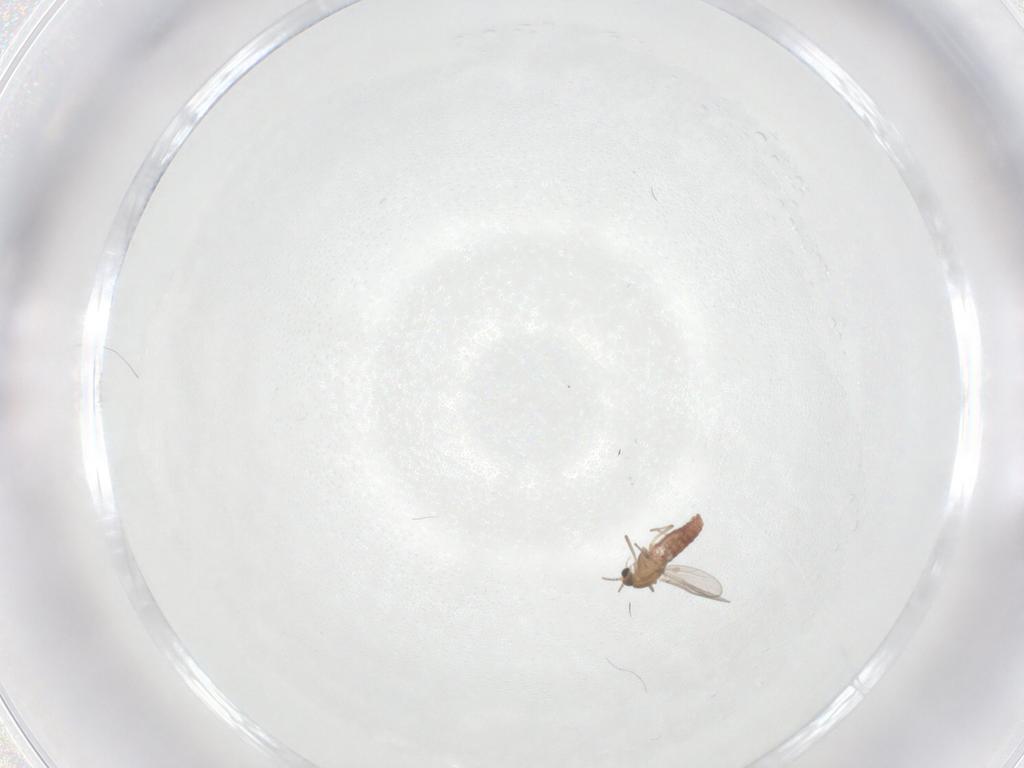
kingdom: Animalia
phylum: Arthropoda
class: Insecta
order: Diptera
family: Chironomidae
